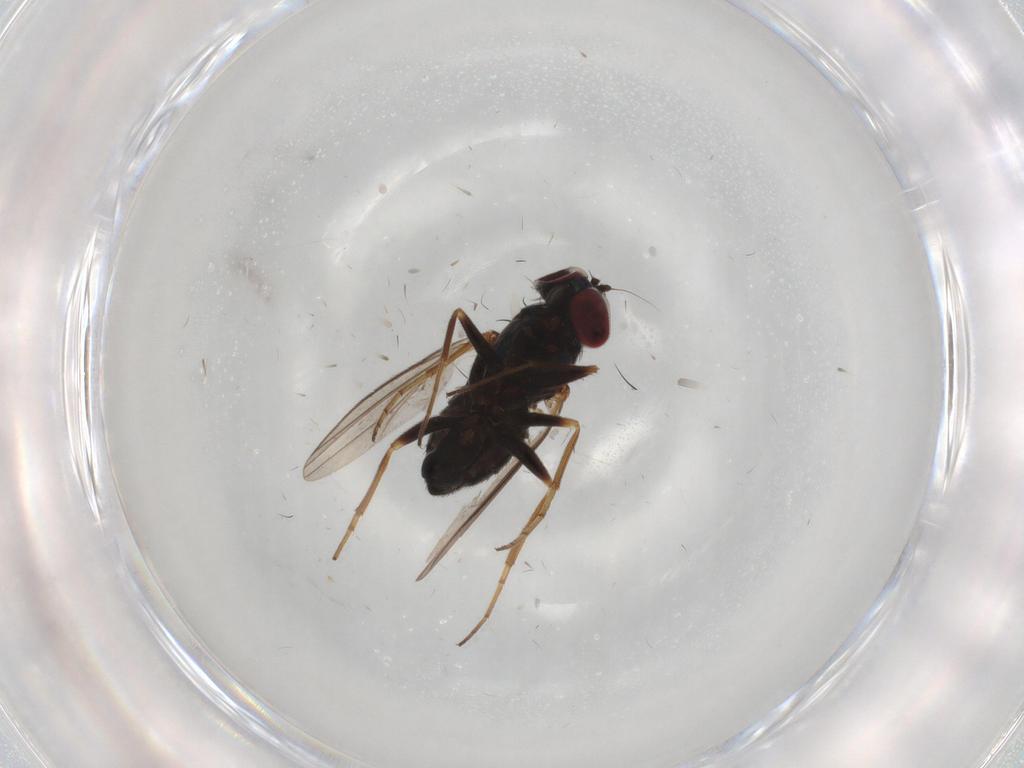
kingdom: Animalia
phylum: Arthropoda
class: Insecta
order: Diptera
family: Dolichopodidae
